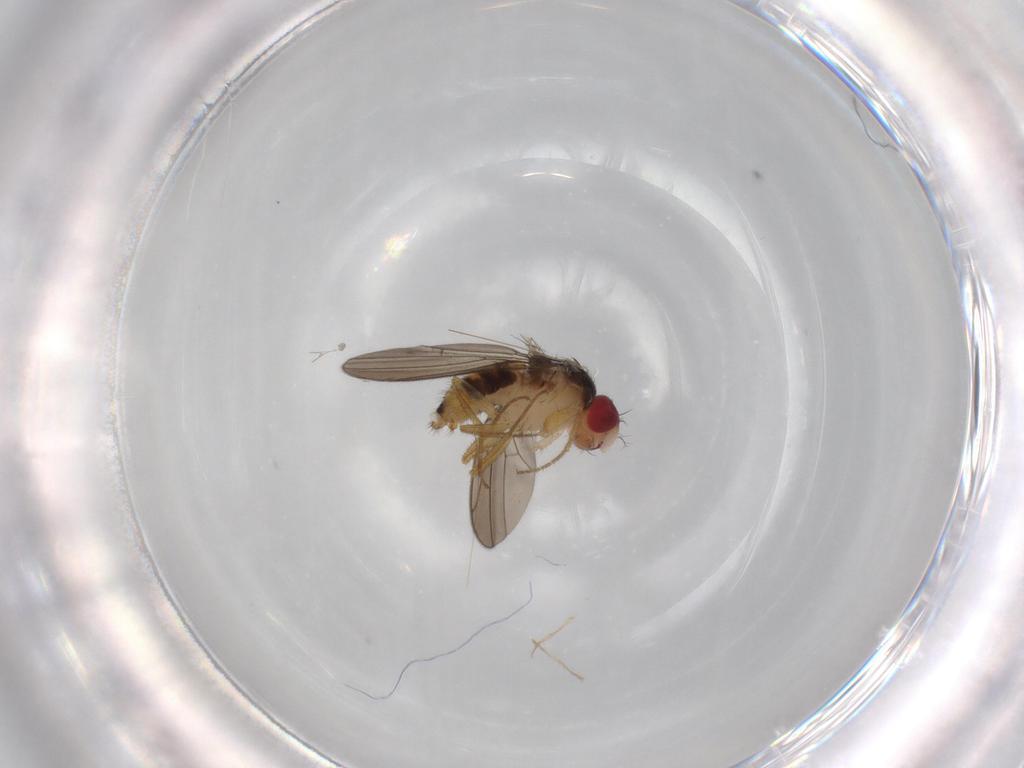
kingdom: Animalia
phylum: Arthropoda
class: Insecta
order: Diptera
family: Drosophilidae
